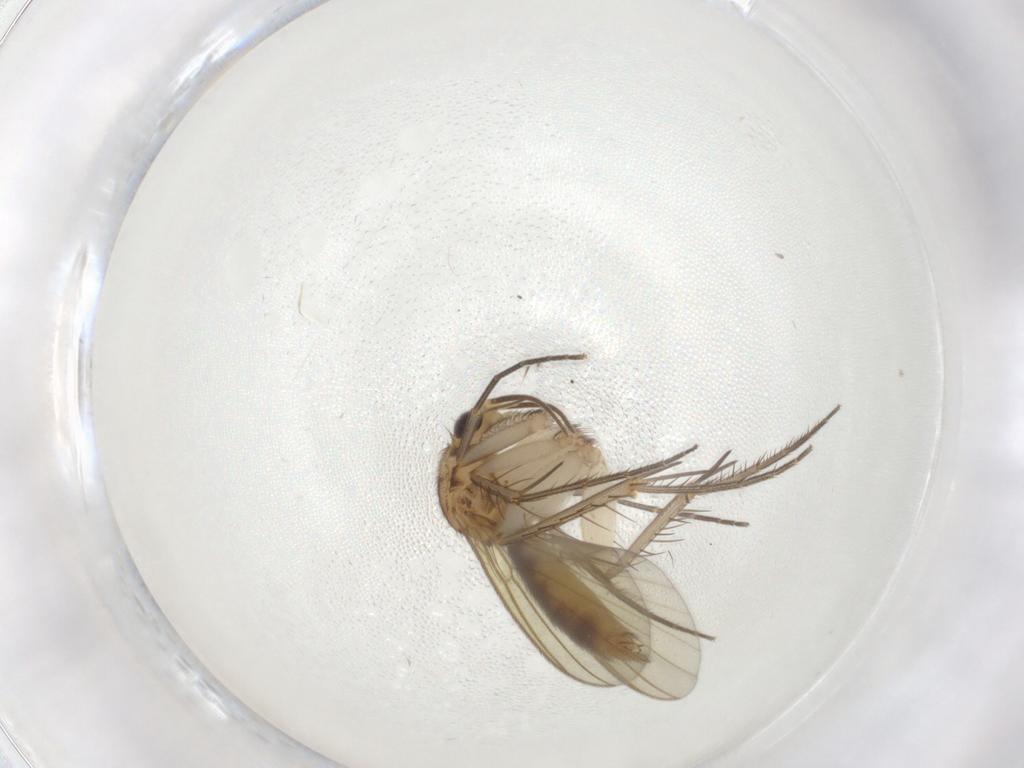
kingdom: Animalia
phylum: Arthropoda
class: Insecta
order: Diptera
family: Mycetophilidae
